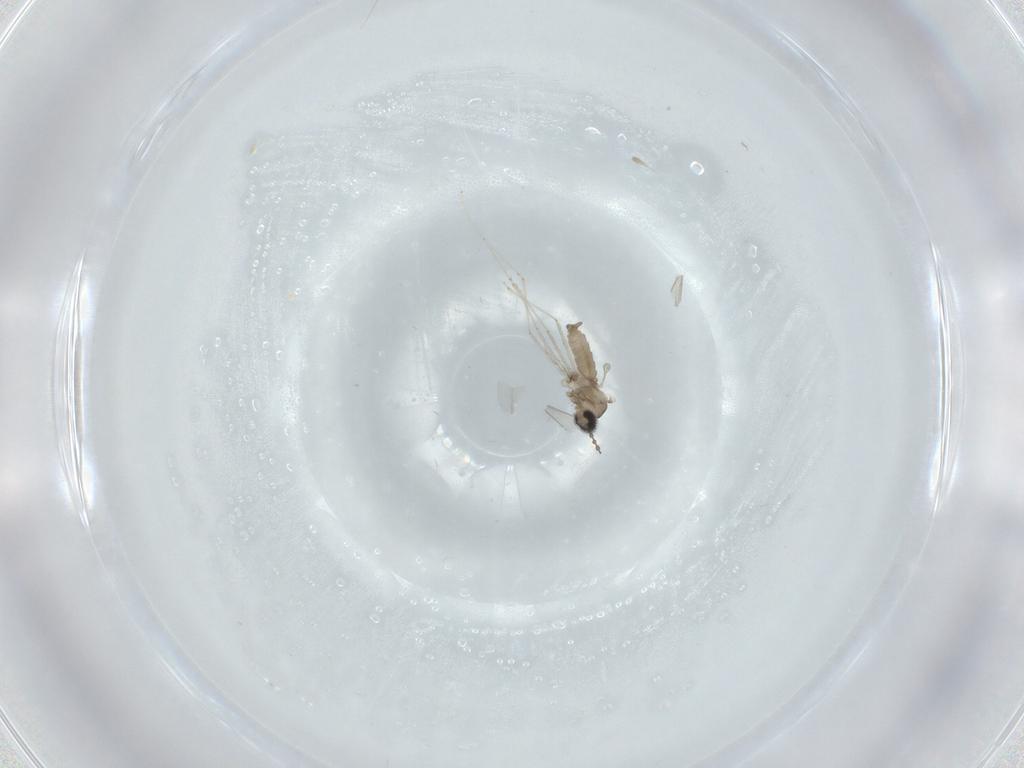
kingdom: Animalia
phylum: Arthropoda
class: Insecta
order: Diptera
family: Cecidomyiidae
